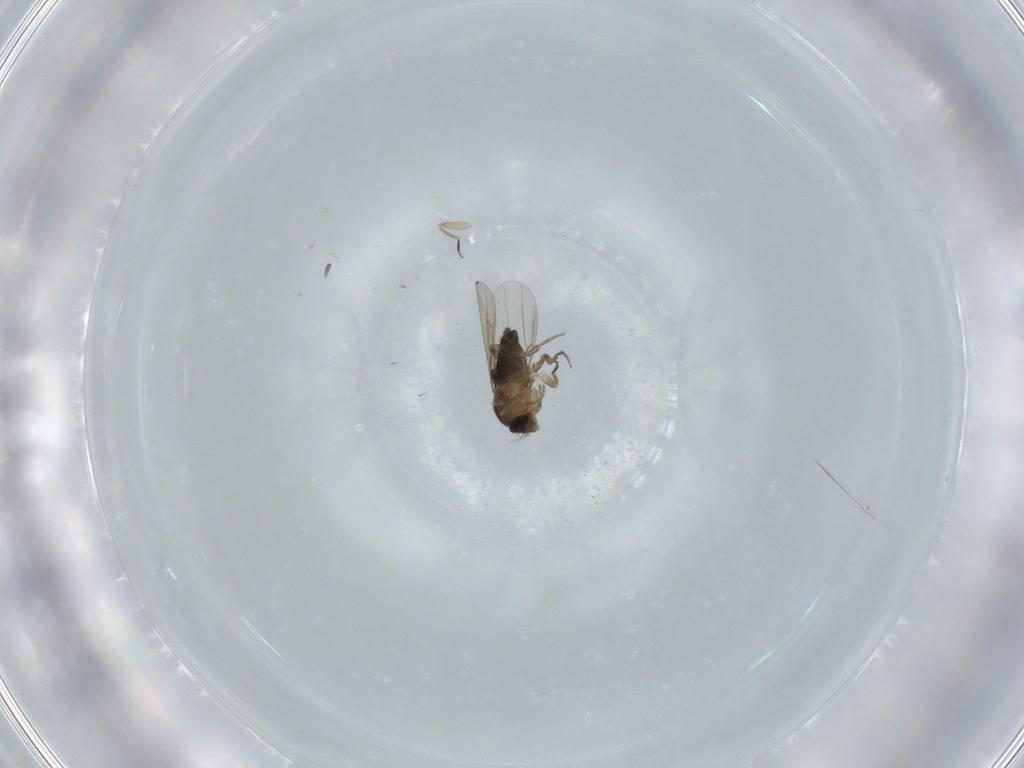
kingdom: Animalia
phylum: Arthropoda
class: Insecta
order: Diptera
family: Phoridae
